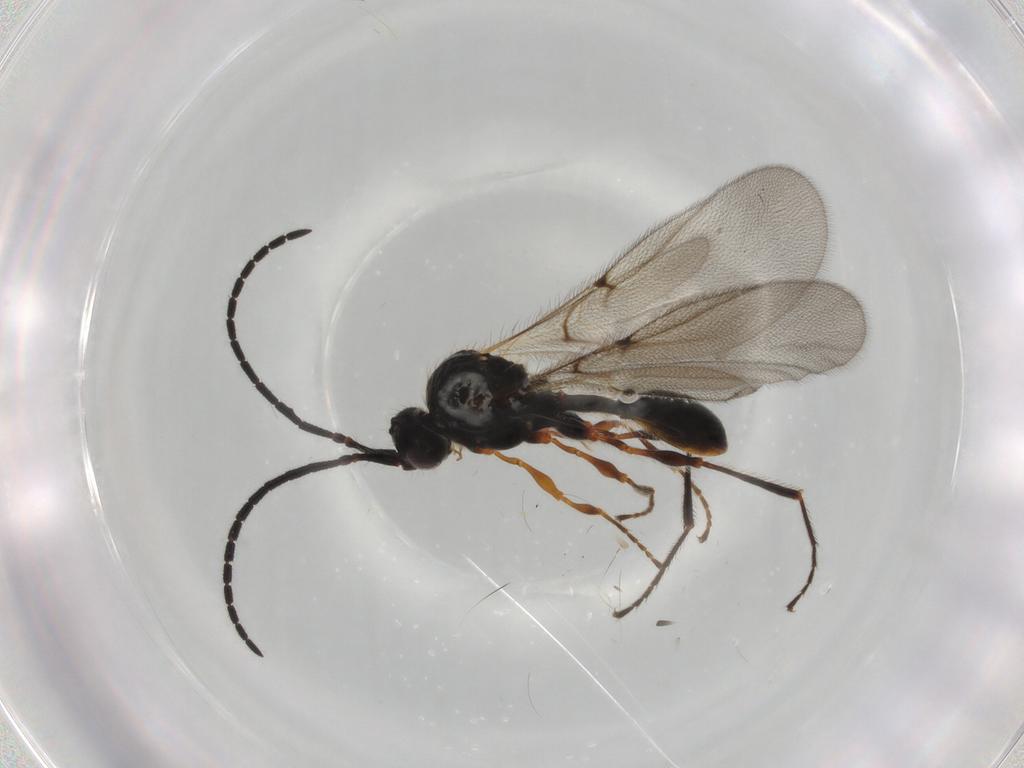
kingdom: Animalia
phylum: Arthropoda
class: Insecta
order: Hymenoptera
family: Diapriidae
